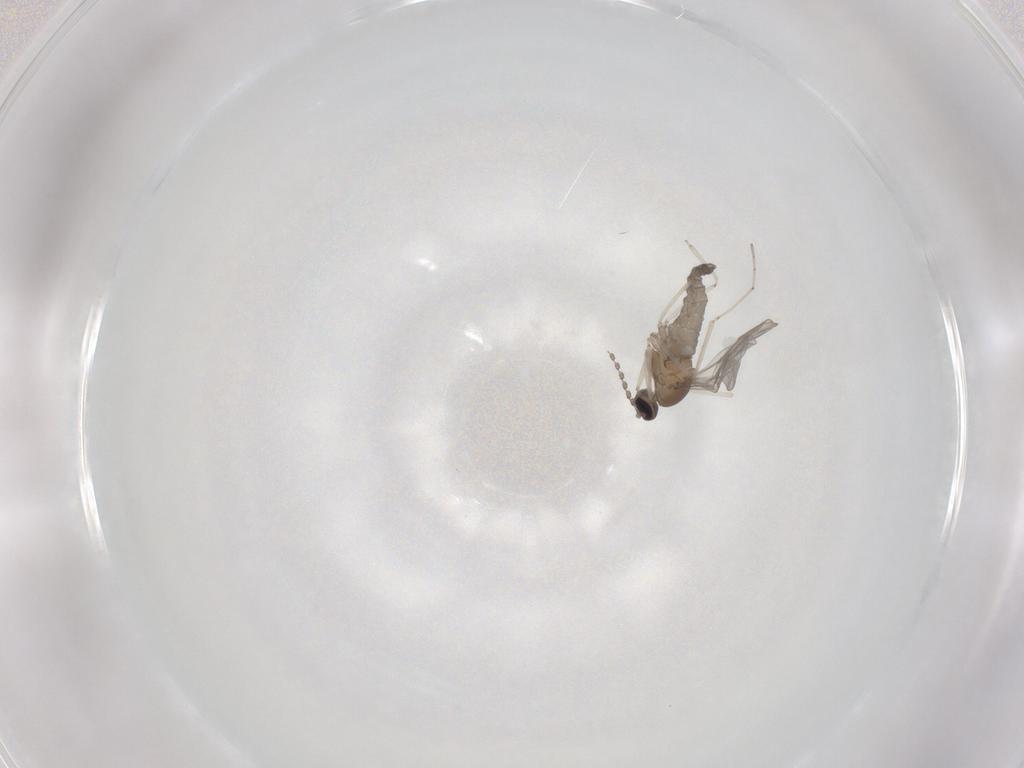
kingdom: Animalia
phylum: Arthropoda
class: Insecta
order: Diptera
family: Cecidomyiidae
